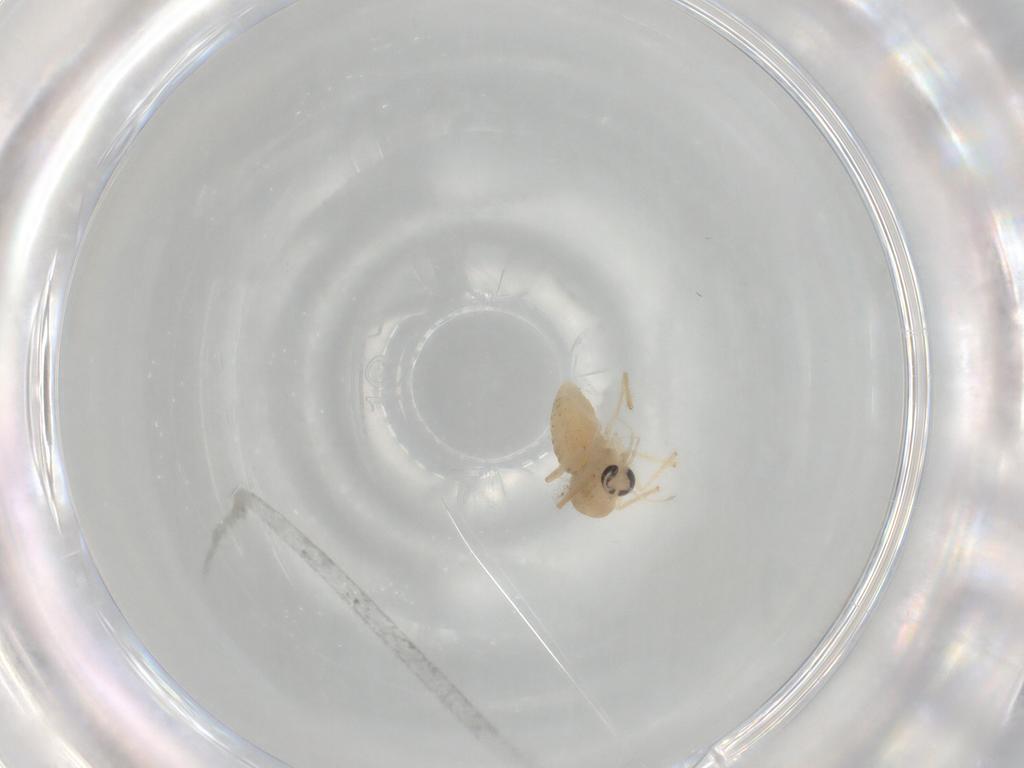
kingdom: Animalia
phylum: Arthropoda
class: Insecta
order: Diptera
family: Chironomidae
